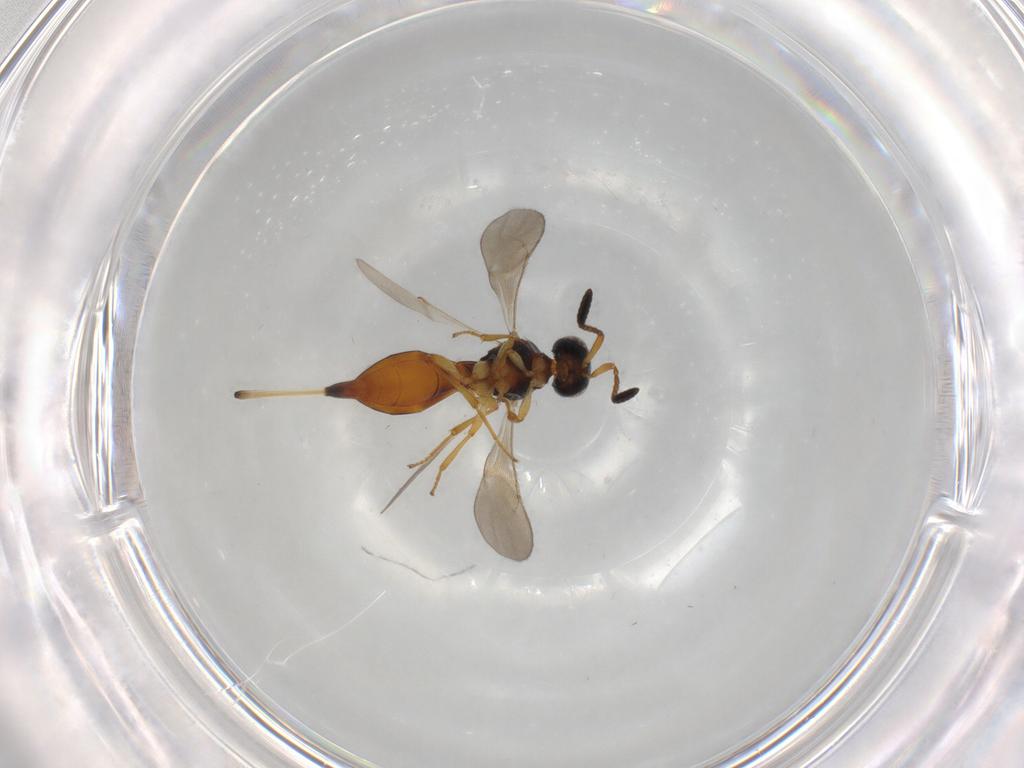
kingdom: Animalia
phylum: Arthropoda
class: Insecta
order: Hymenoptera
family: Scelionidae
